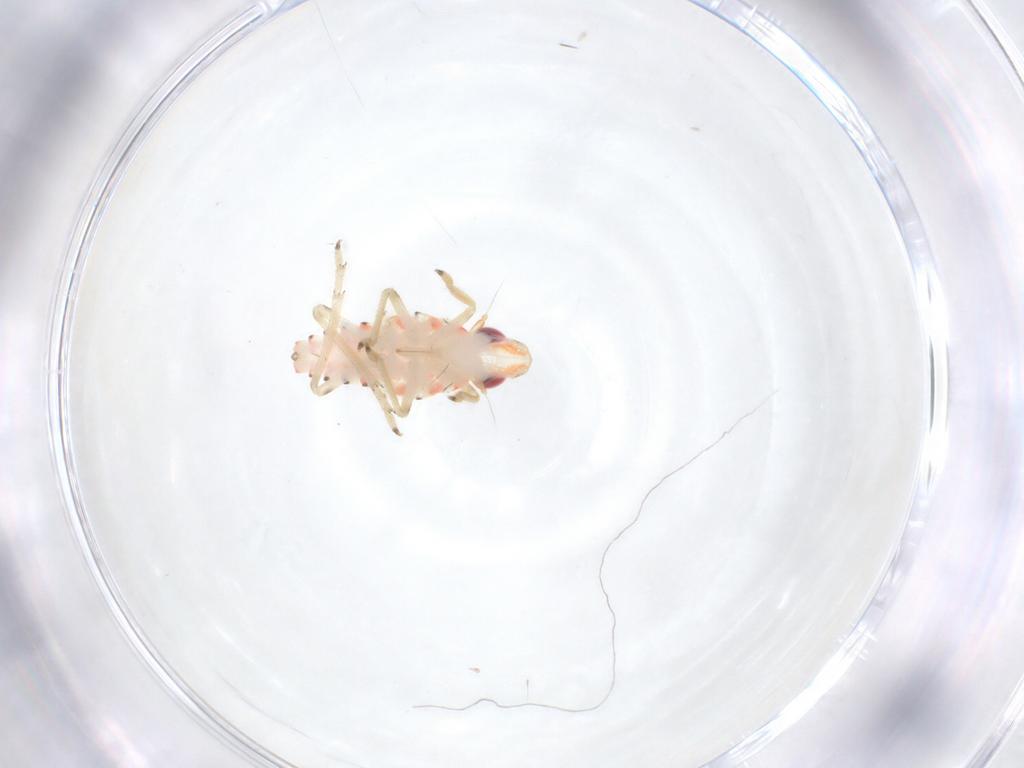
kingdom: Animalia
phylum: Arthropoda
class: Insecta
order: Hemiptera
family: Tropiduchidae
